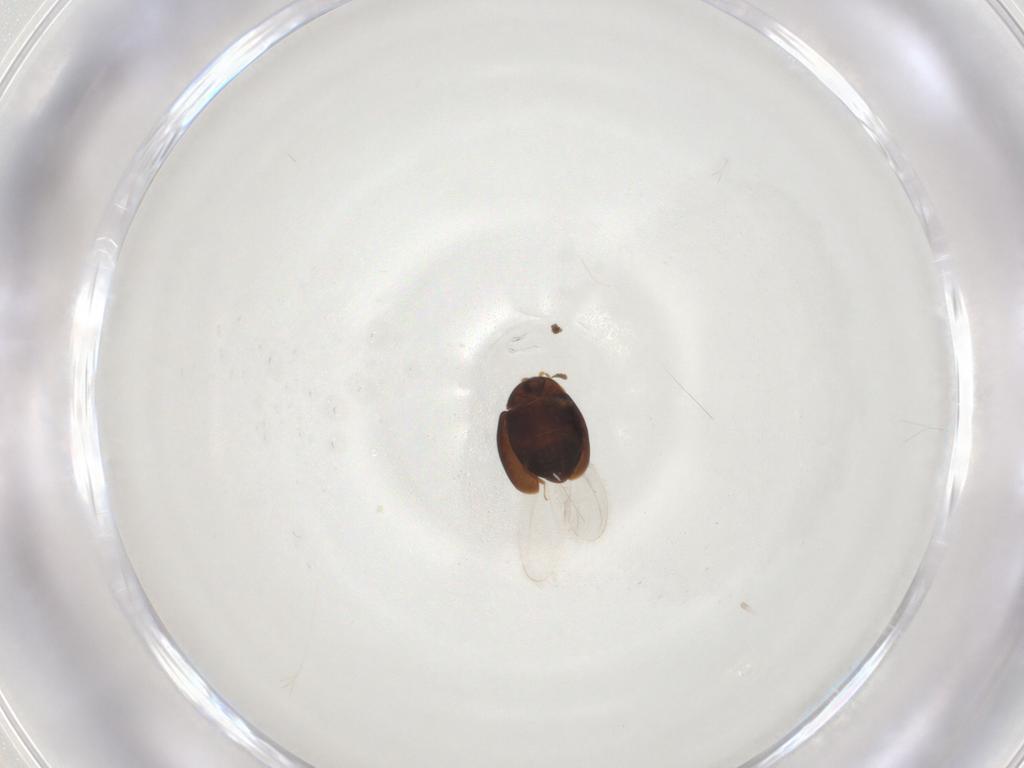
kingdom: Animalia
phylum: Arthropoda
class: Insecta
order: Coleoptera
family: Corylophidae
